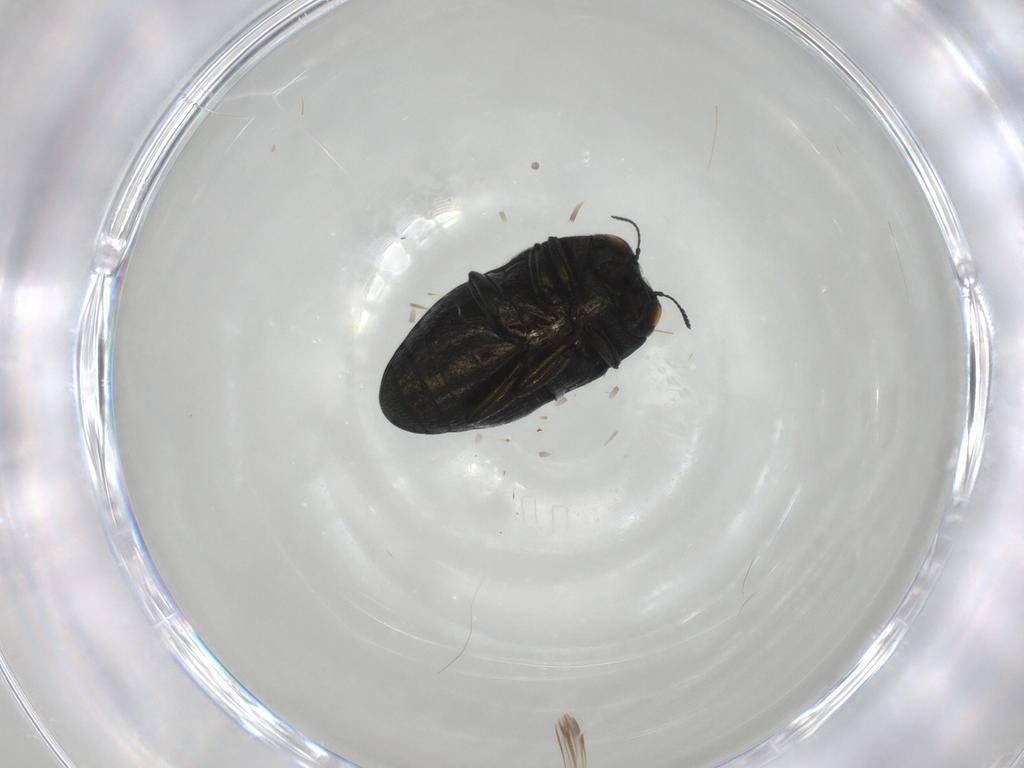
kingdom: Animalia
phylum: Arthropoda
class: Insecta
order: Coleoptera
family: Buprestidae
